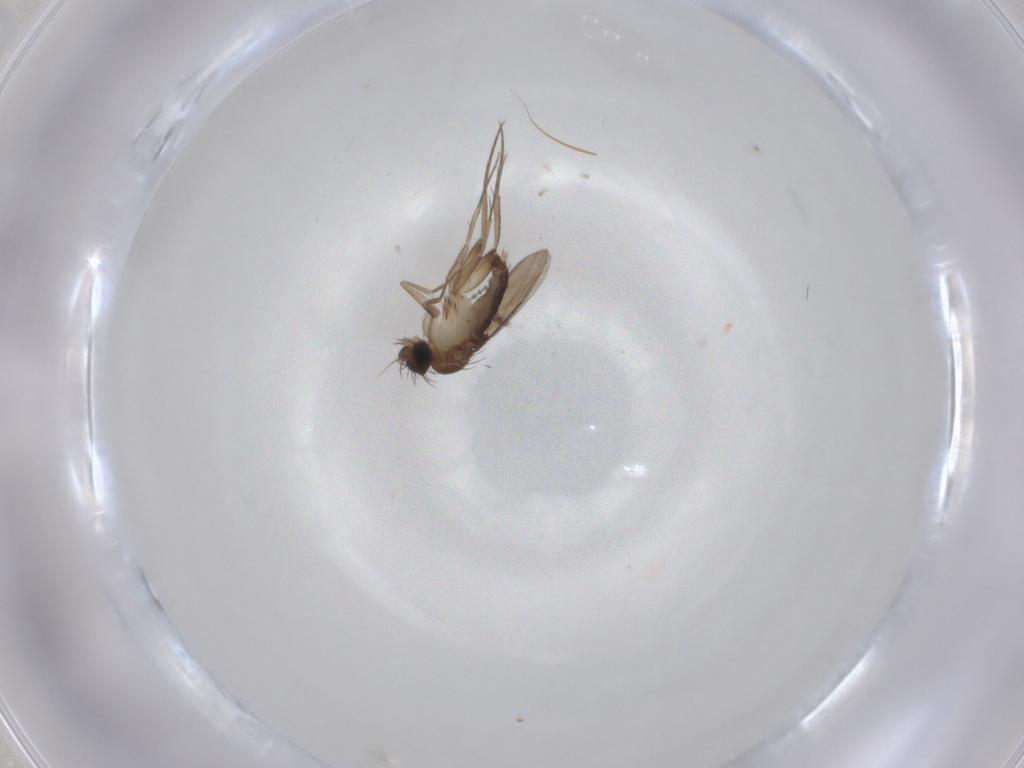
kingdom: Animalia
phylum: Arthropoda
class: Insecta
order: Diptera
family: Phoridae
